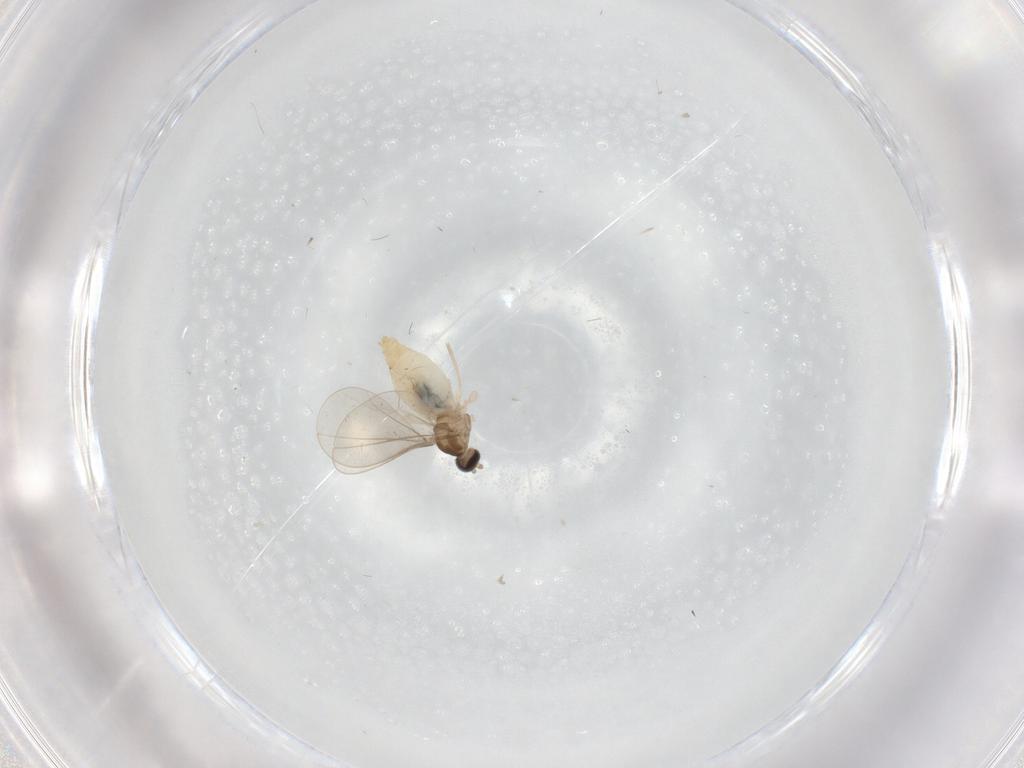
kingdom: Animalia
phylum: Arthropoda
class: Insecta
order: Diptera
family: Cecidomyiidae
